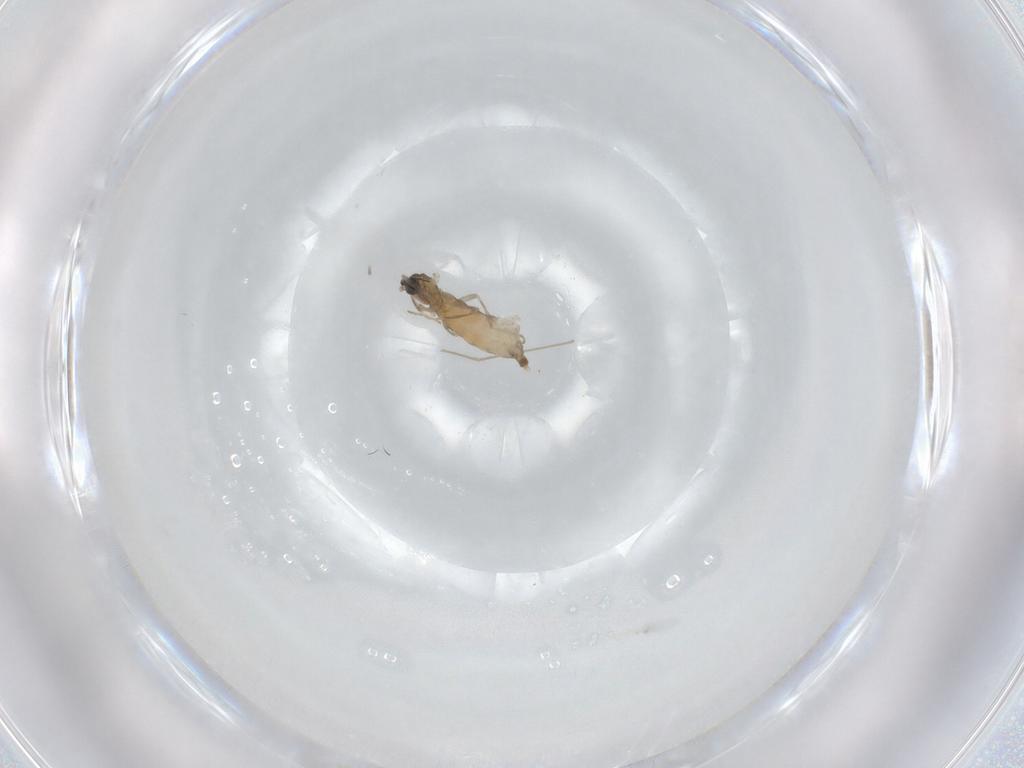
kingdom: Animalia
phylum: Arthropoda
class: Insecta
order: Diptera
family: Cecidomyiidae
